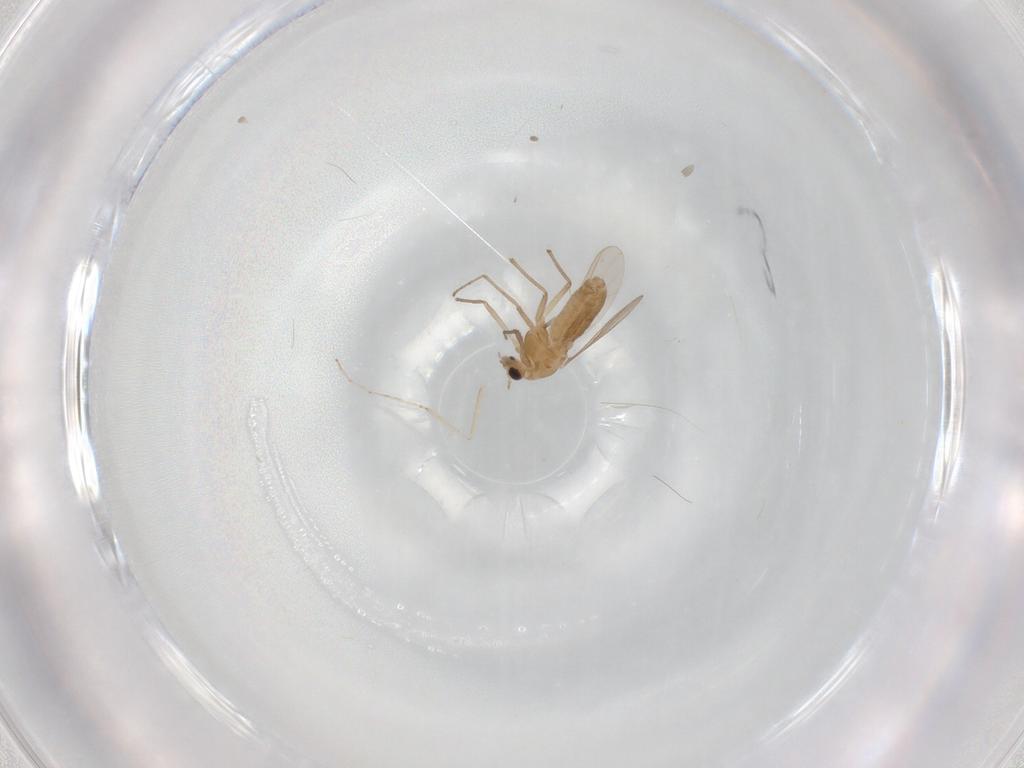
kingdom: Animalia
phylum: Arthropoda
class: Insecta
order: Diptera
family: Chironomidae
